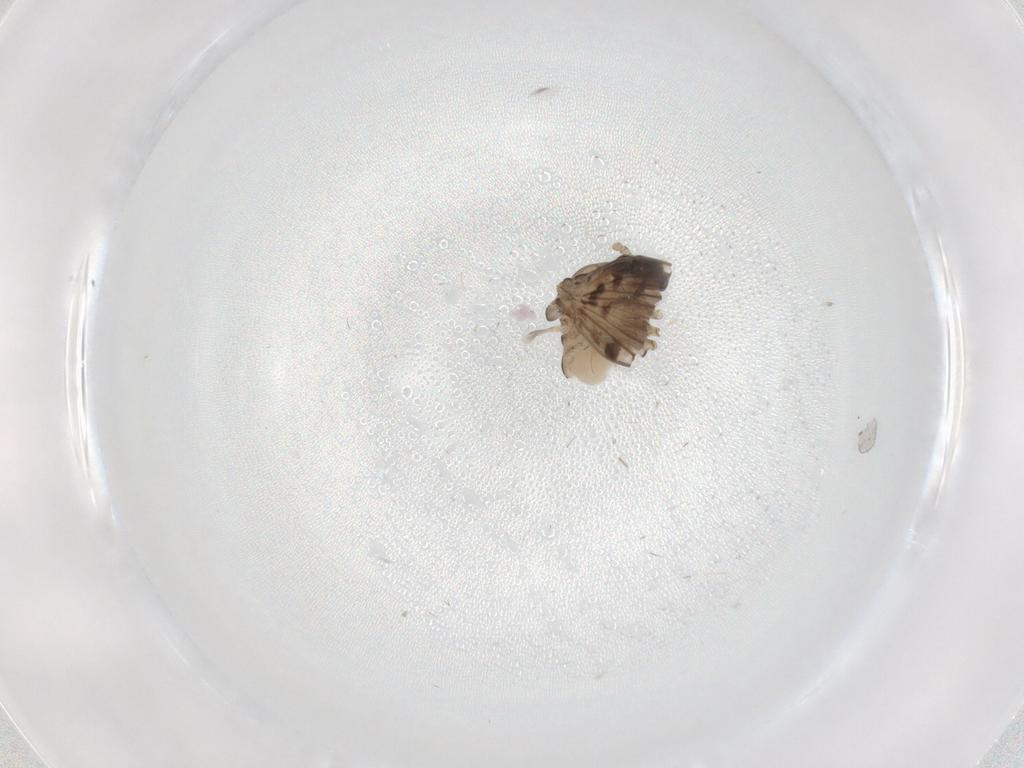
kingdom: Animalia
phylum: Arthropoda
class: Insecta
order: Diptera
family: Psychodidae
